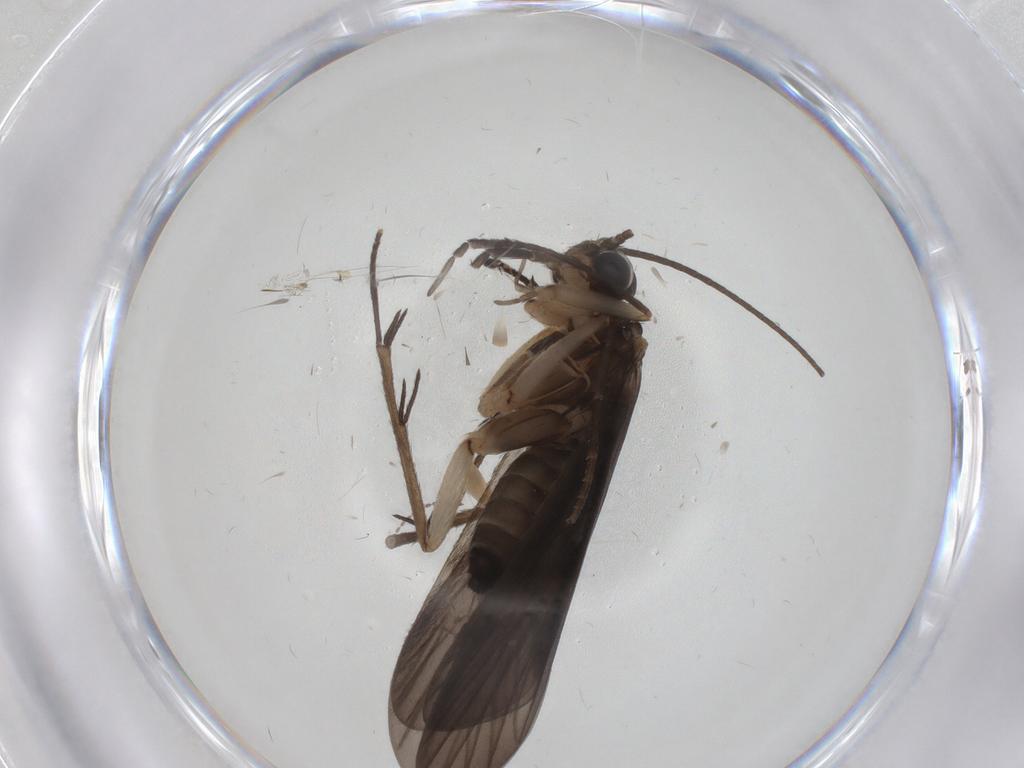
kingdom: Animalia
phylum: Arthropoda
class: Insecta
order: Trichoptera
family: Philopotamidae
